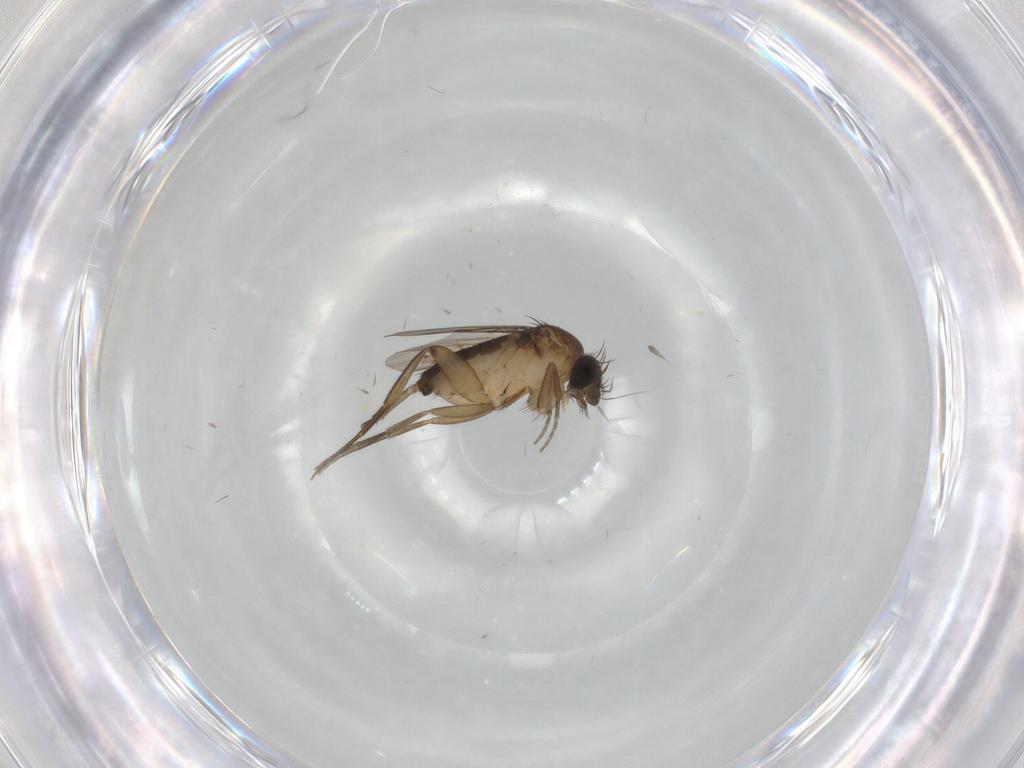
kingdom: Animalia
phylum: Arthropoda
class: Insecta
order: Diptera
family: Phoridae
